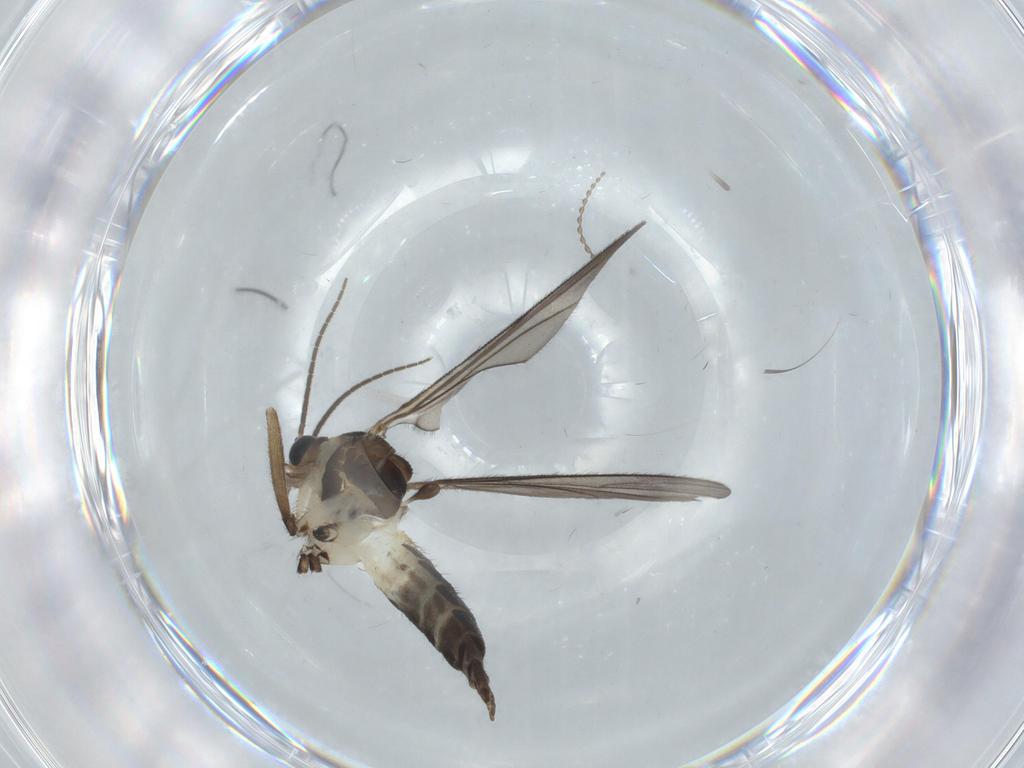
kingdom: Animalia
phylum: Arthropoda
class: Insecta
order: Diptera
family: Sciaridae
